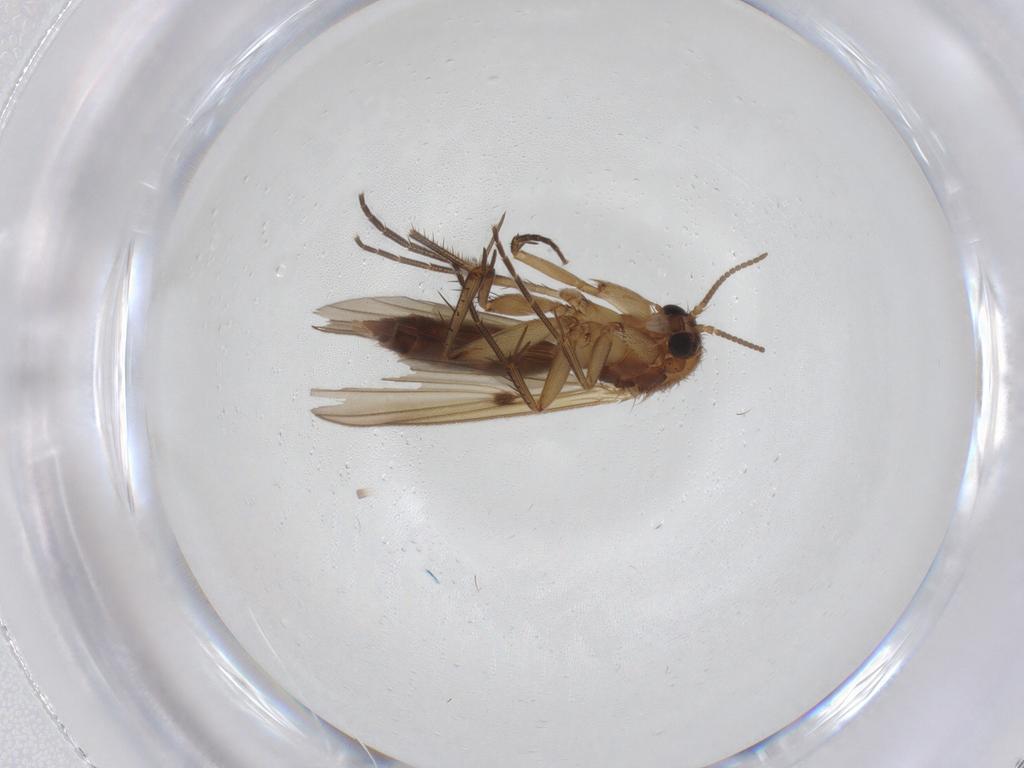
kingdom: Animalia
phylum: Arthropoda
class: Insecta
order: Diptera
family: Mycetophilidae
